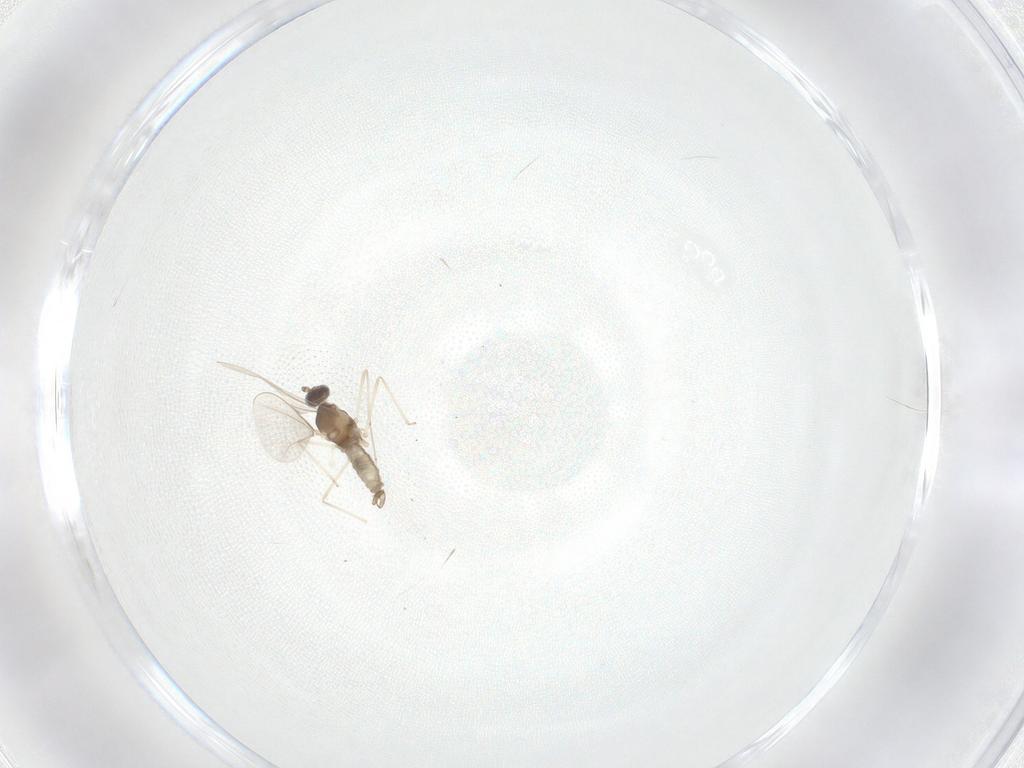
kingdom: Animalia
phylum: Arthropoda
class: Insecta
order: Diptera
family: Cecidomyiidae
